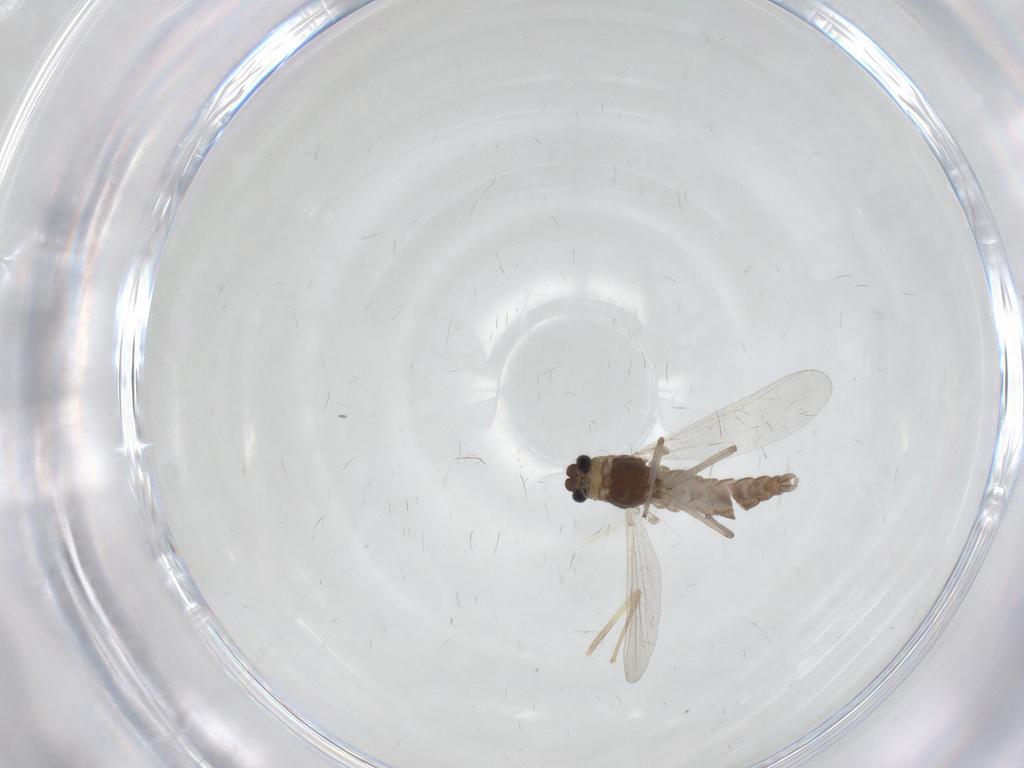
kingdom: Animalia
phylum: Arthropoda
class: Insecta
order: Diptera
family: Chironomidae
